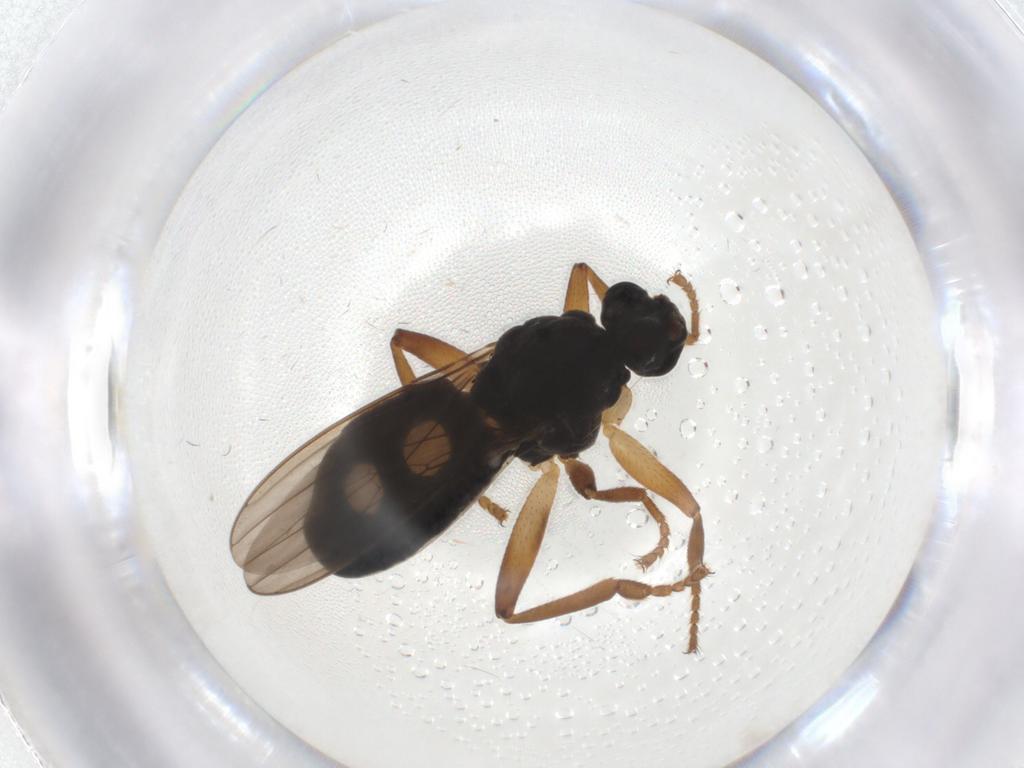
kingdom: Animalia
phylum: Arthropoda
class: Insecta
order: Diptera
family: Sphaeroceridae
